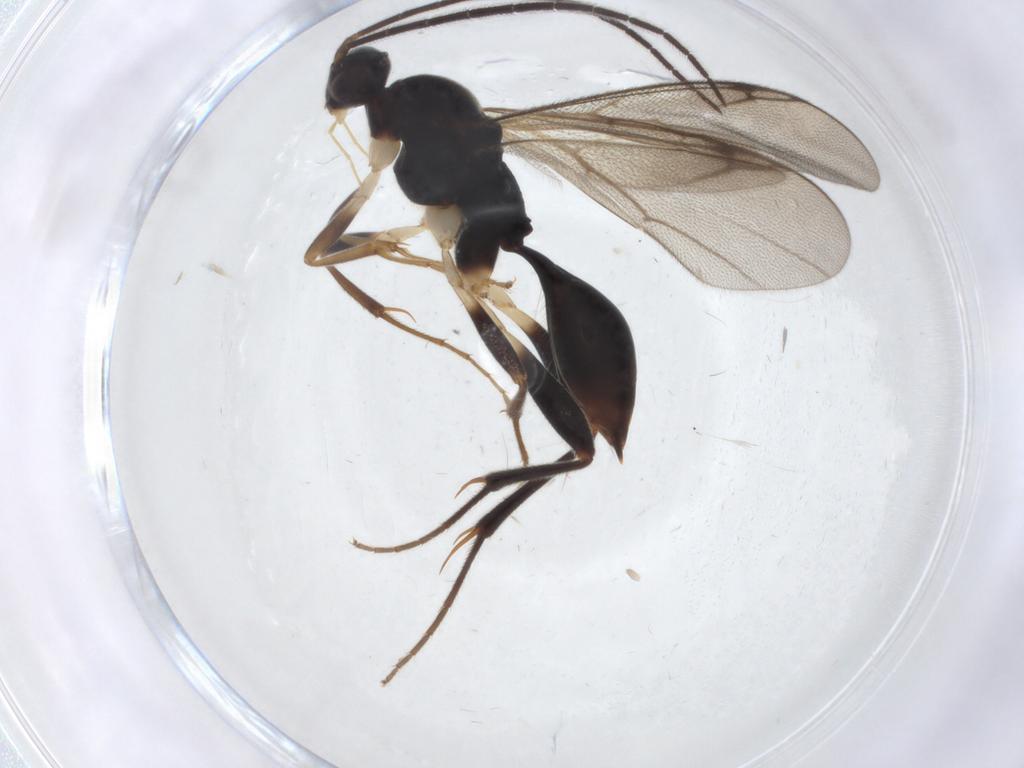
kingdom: Animalia
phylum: Arthropoda
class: Insecta
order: Hymenoptera
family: Proctotrupidae
